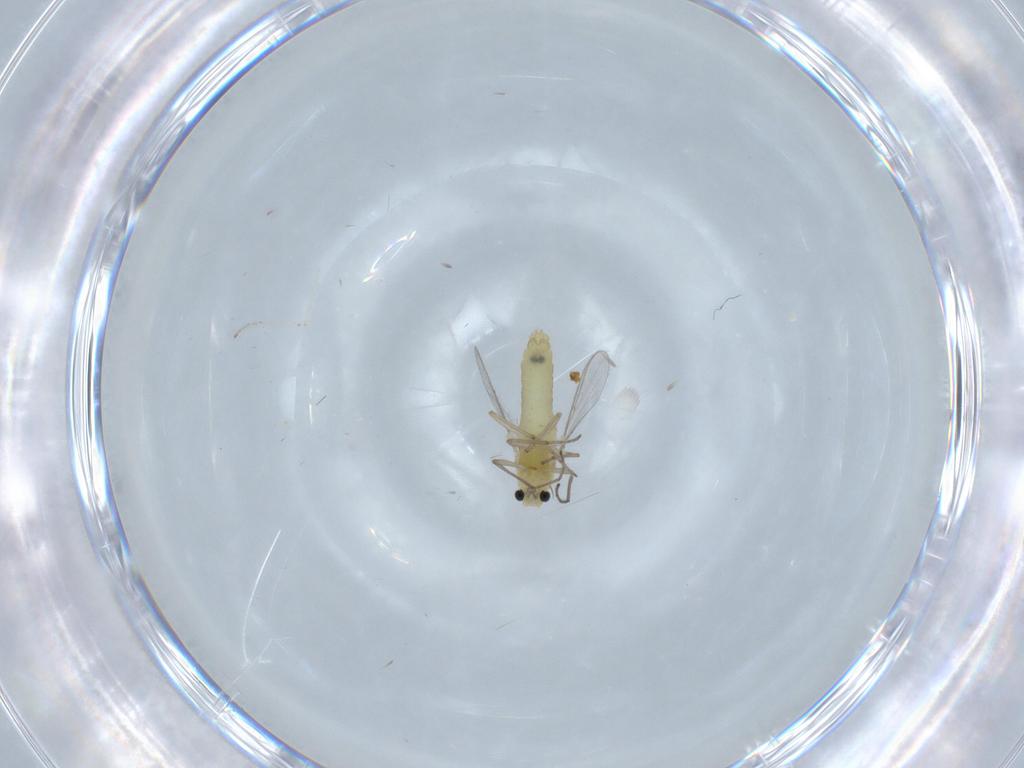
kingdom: Animalia
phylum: Arthropoda
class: Insecta
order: Diptera
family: Chironomidae
